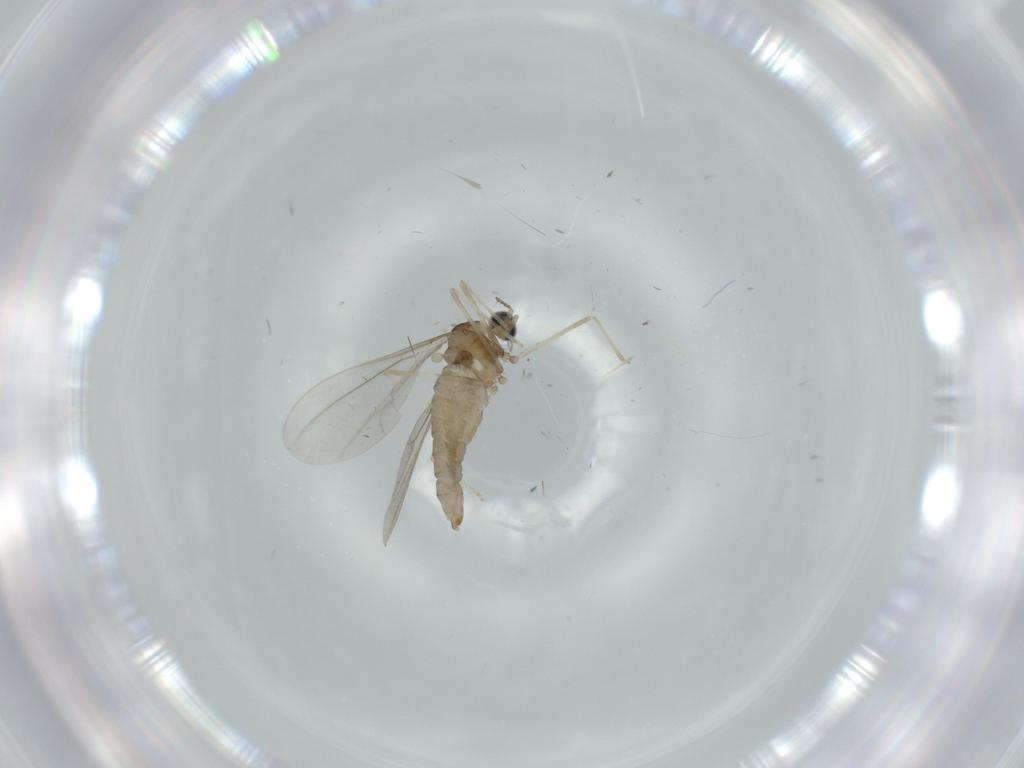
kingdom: Animalia
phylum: Arthropoda
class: Insecta
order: Diptera
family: Cecidomyiidae
